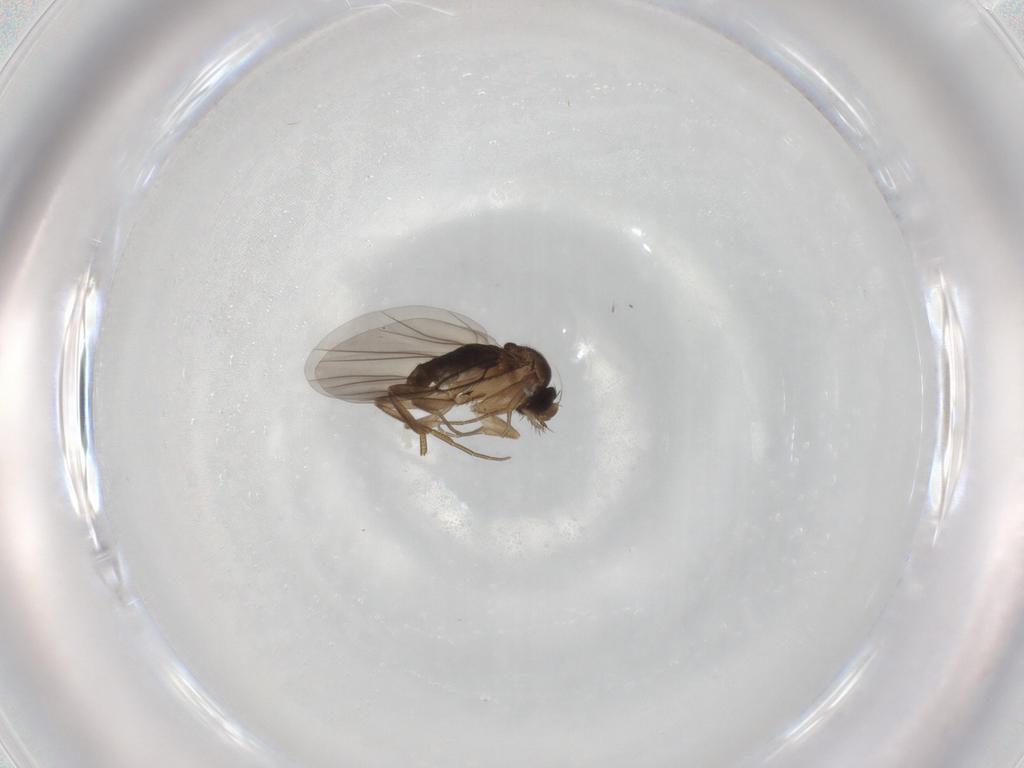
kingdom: Animalia
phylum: Arthropoda
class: Insecta
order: Diptera
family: Phoridae
